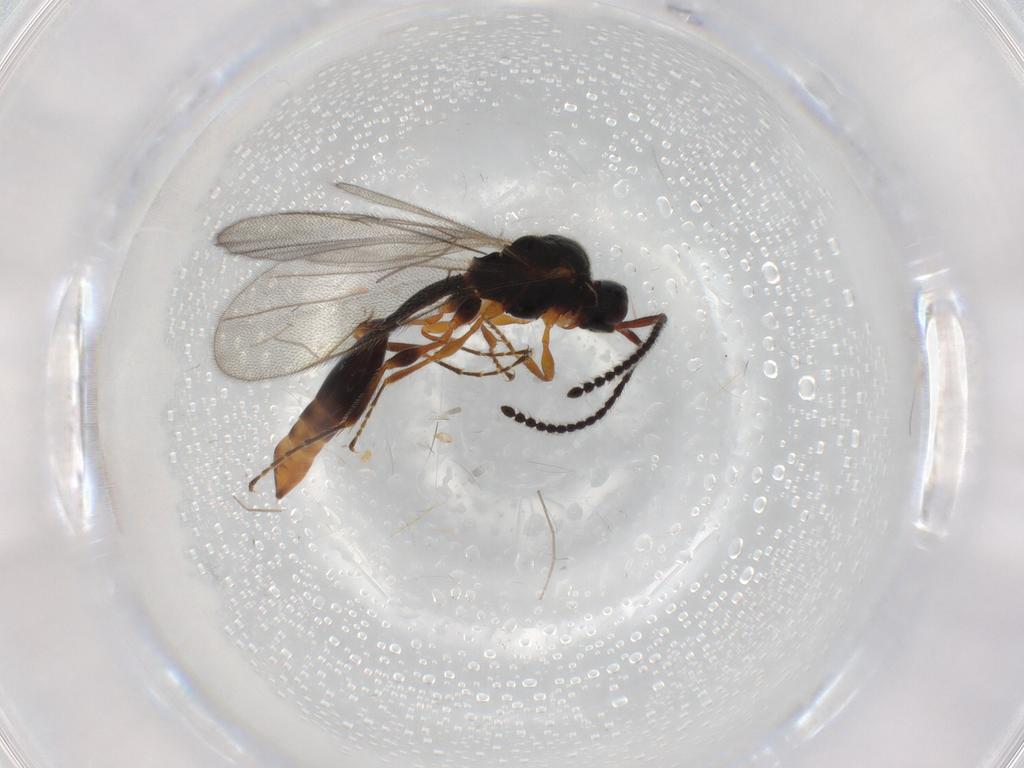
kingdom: Animalia
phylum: Arthropoda
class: Insecta
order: Hymenoptera
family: Diapriidae
